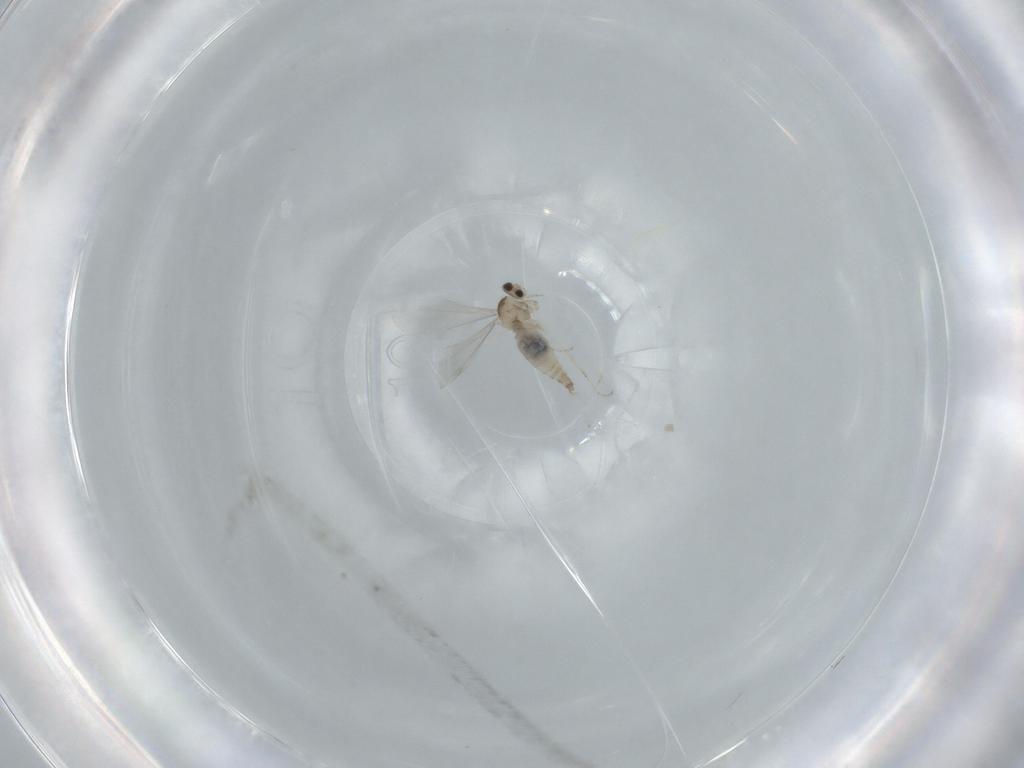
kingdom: Animalia
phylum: Arthropoda
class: Insecta
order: Diptera
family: Cecidomyiidae
